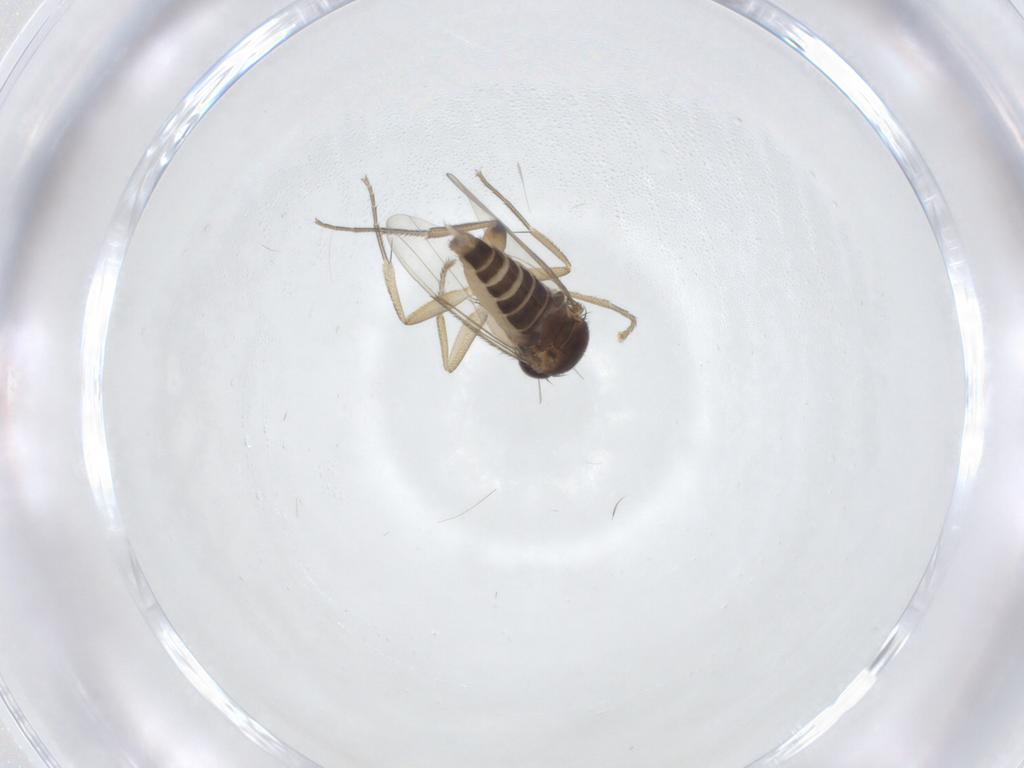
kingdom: Animalia
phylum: Arthropoda
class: Insecta
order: Diptera
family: Phoridae
